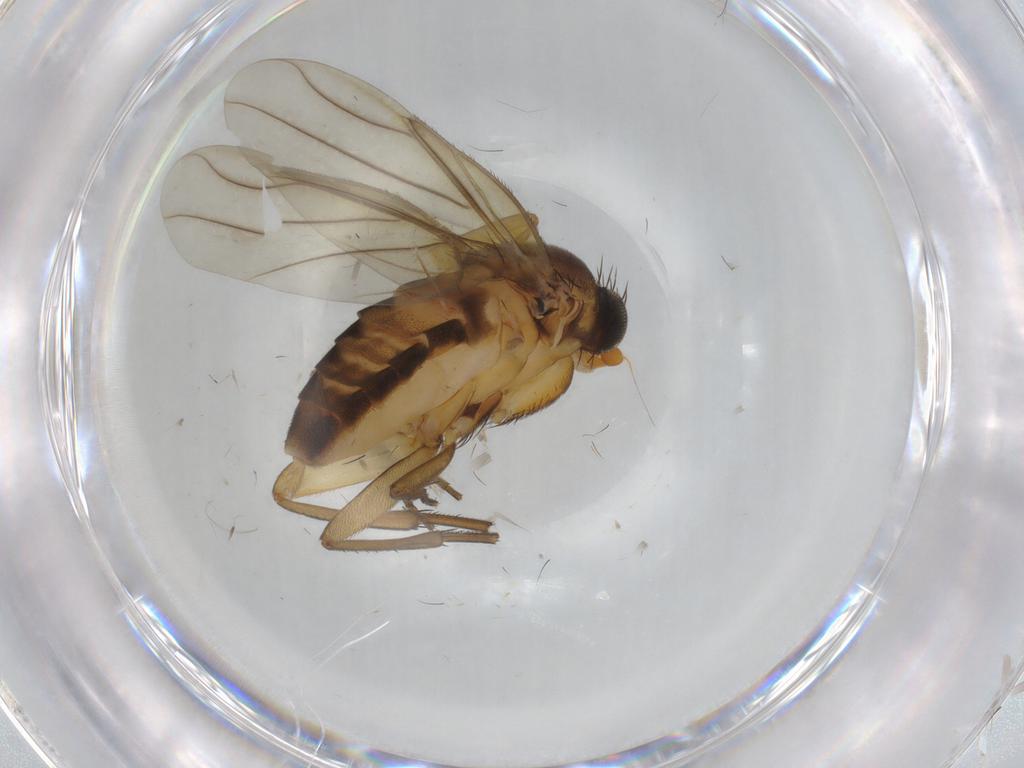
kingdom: Animalia
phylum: Arthropoda
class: Insecta
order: Diptera
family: Phoridae
